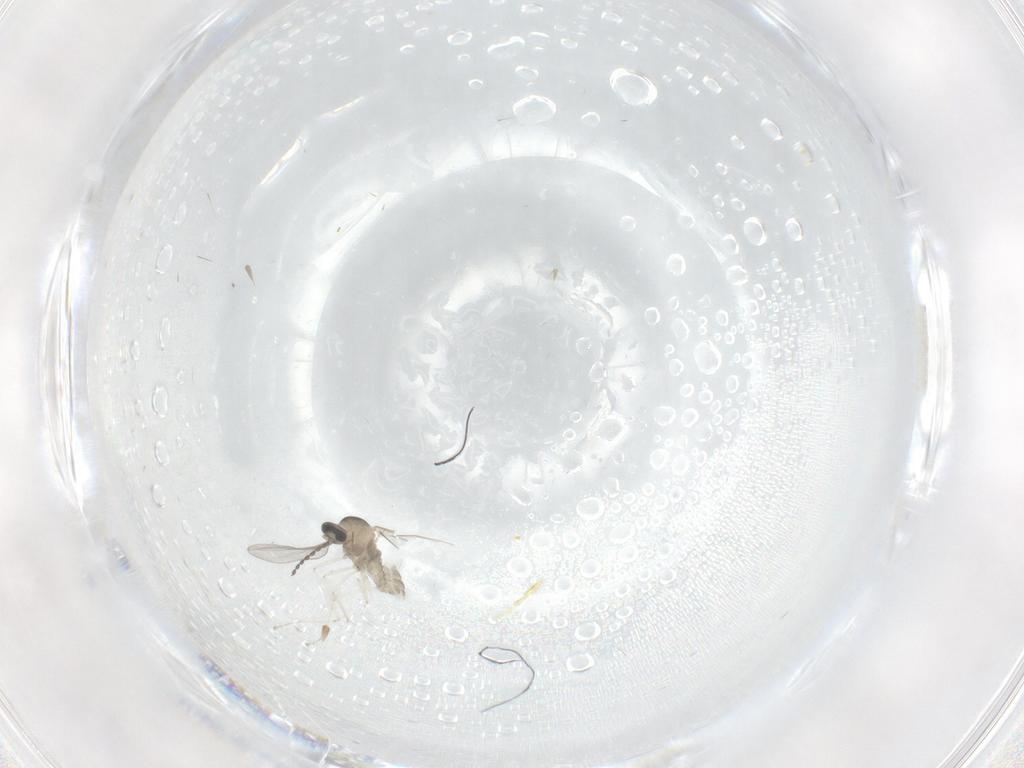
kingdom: Animalia
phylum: Arthropoda
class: Insecta
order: Diptera
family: Cecidomyiidae
